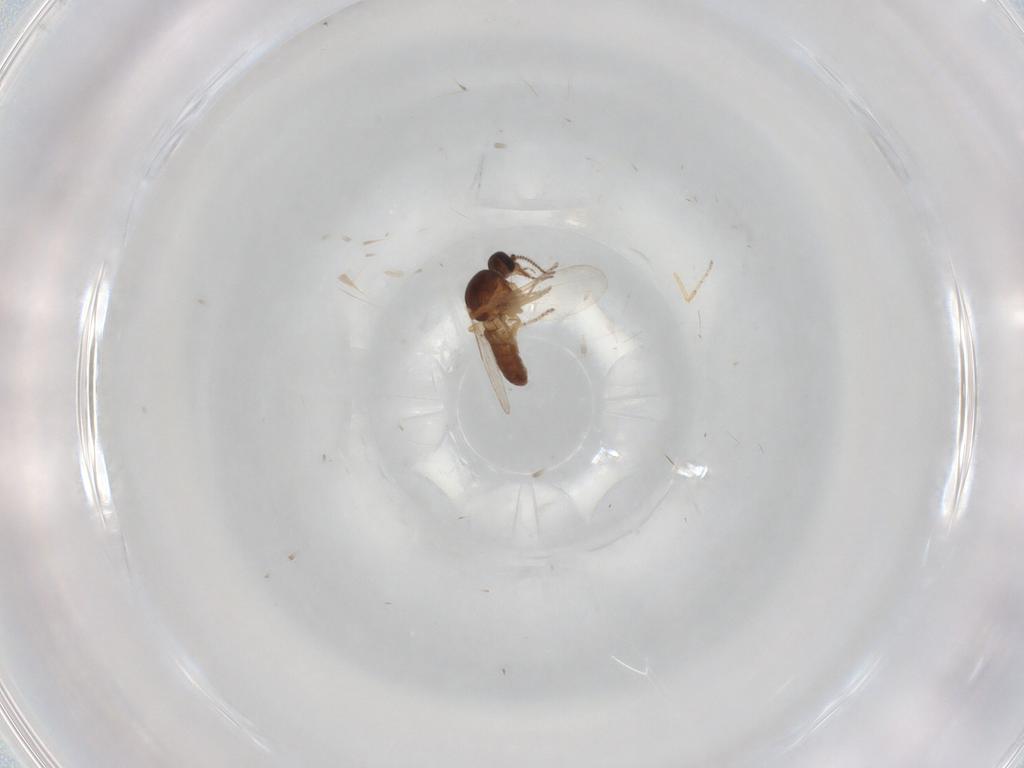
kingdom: Animalia
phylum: Arthropoda
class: Insecta
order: Diptera
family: Ceratopogonidae
